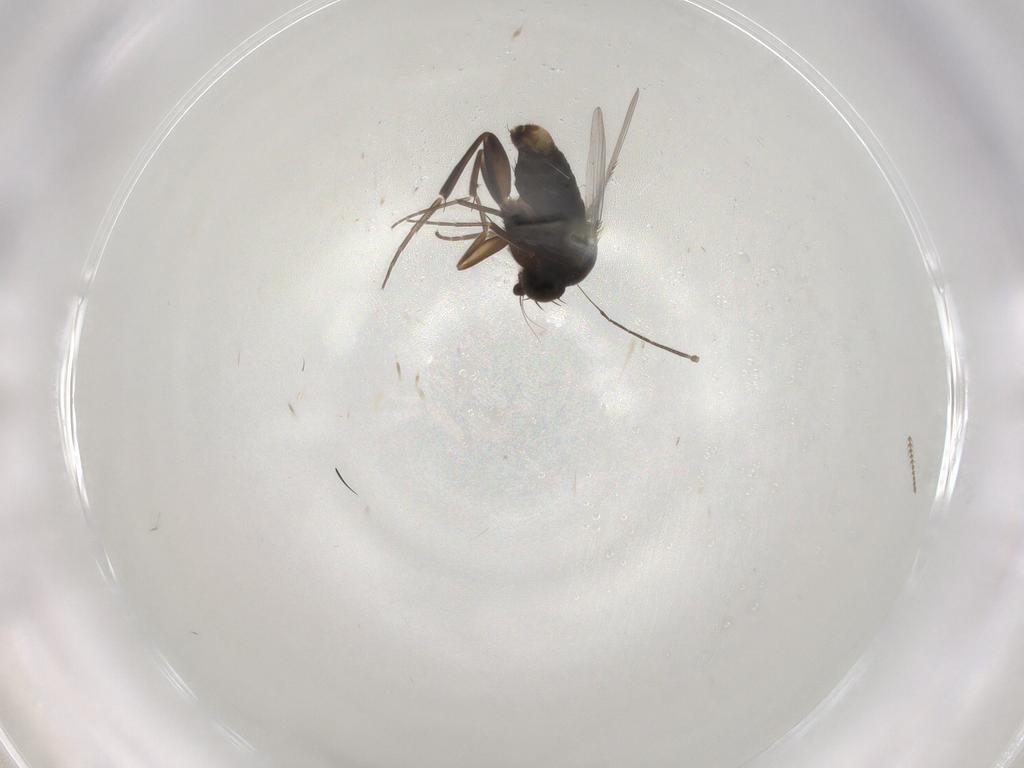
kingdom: Animalia
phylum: Arthropoda
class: Insecta
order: Diptera
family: Phoridae
